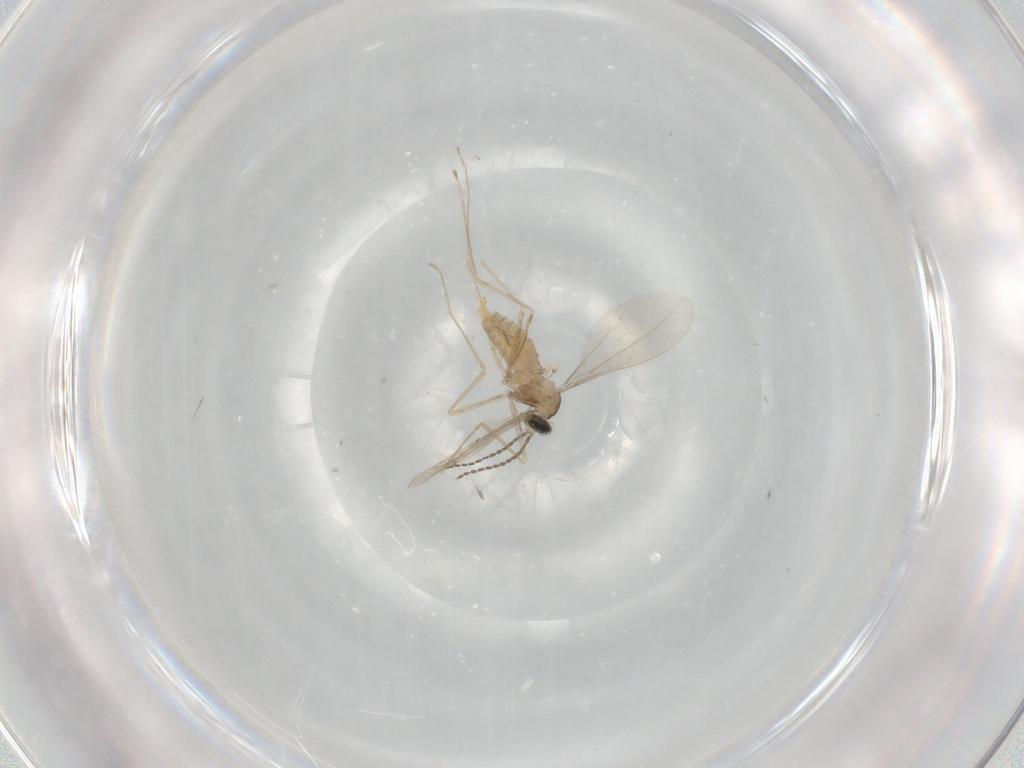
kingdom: Animalia
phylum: Arthropoda
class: Insecta
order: Diptera
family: Cecidomyiidae
